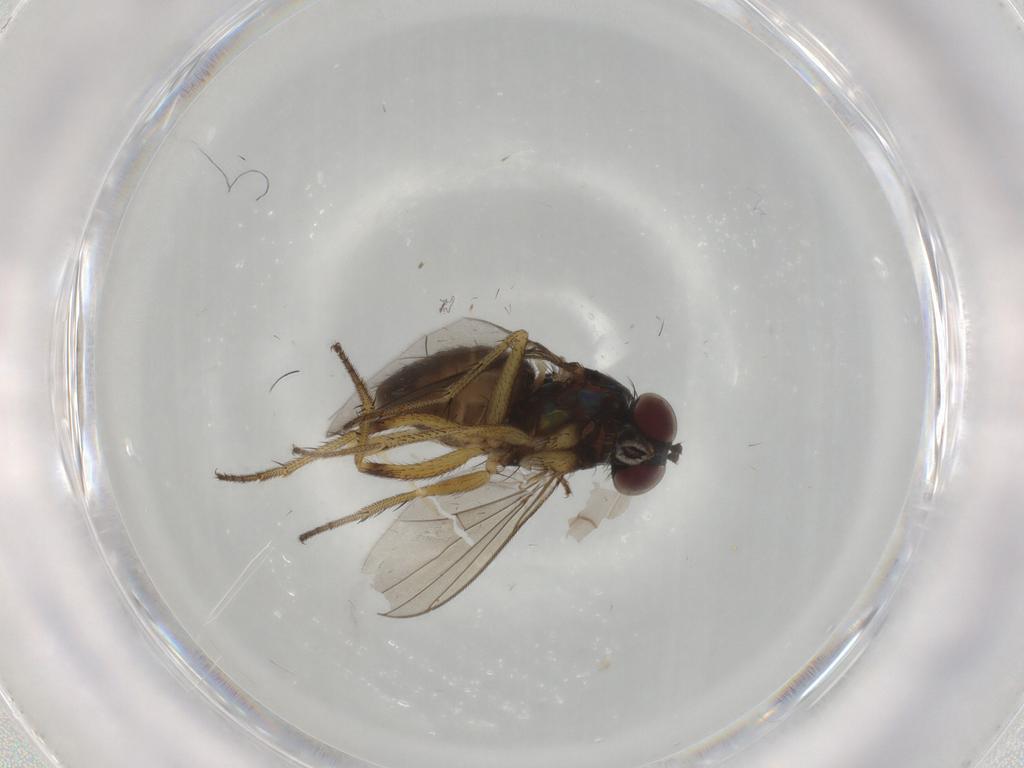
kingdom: Animalia
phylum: Arthropoda
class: Insecta
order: Diptera
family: Dolichopodidae
